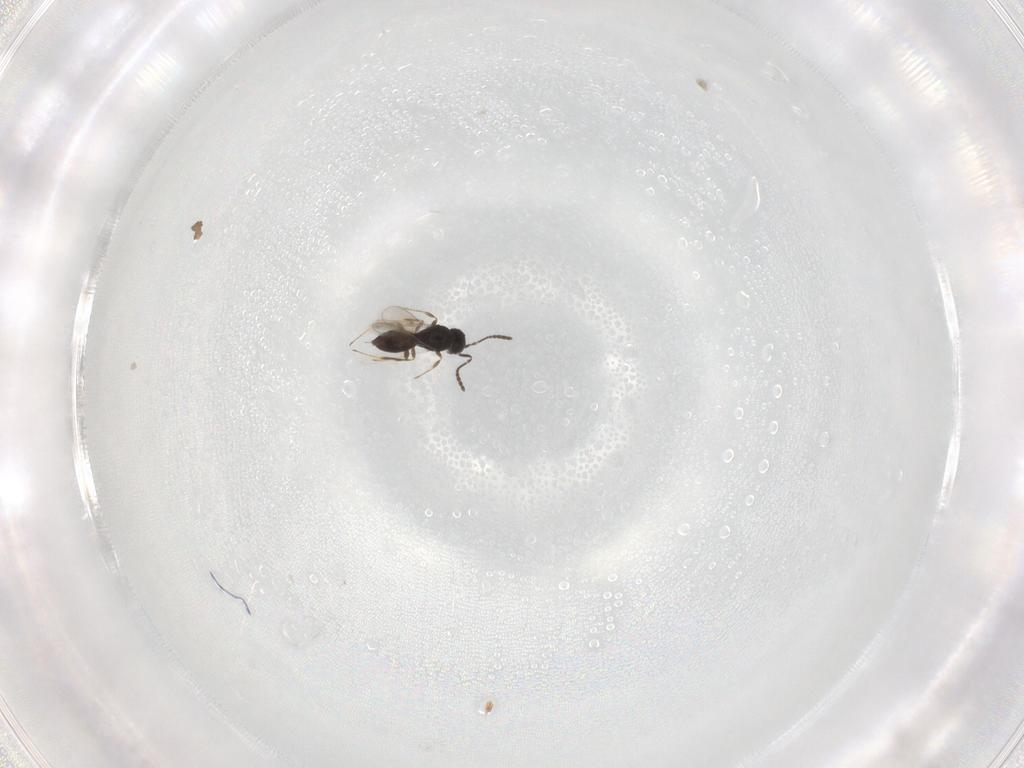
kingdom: Animalia
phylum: Arthropoda
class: Insecta
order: Hymenoptera
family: Scelionidae
